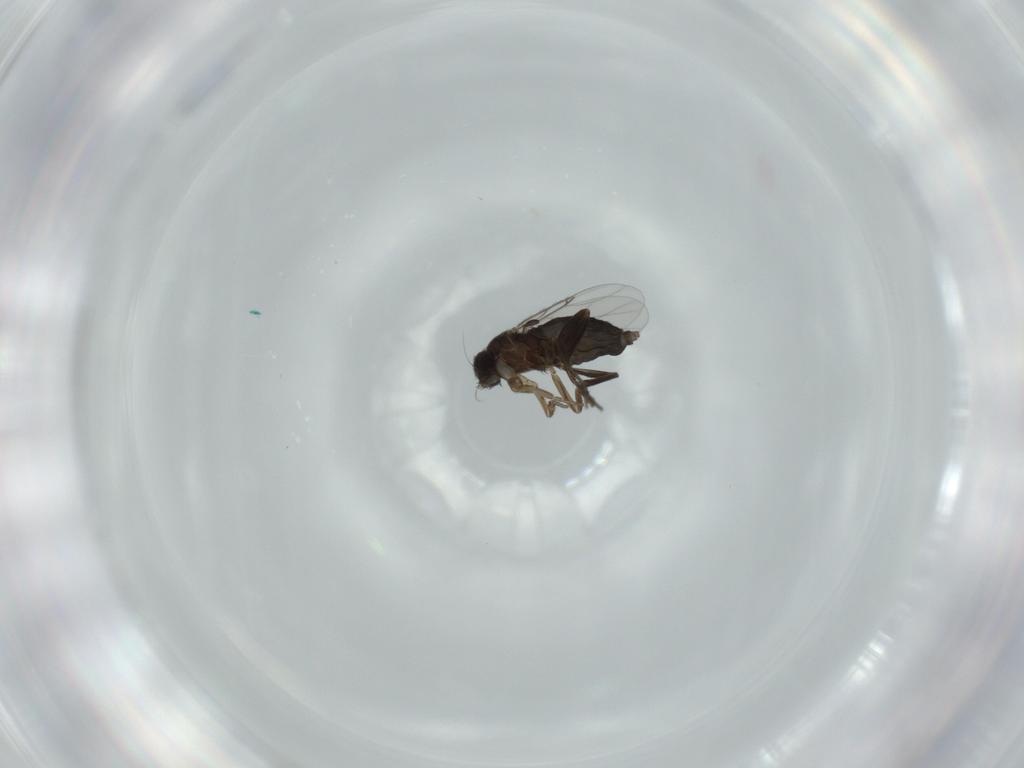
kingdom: Animalia
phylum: Arthropoda
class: Insecta
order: Diptera
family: Phoridae
